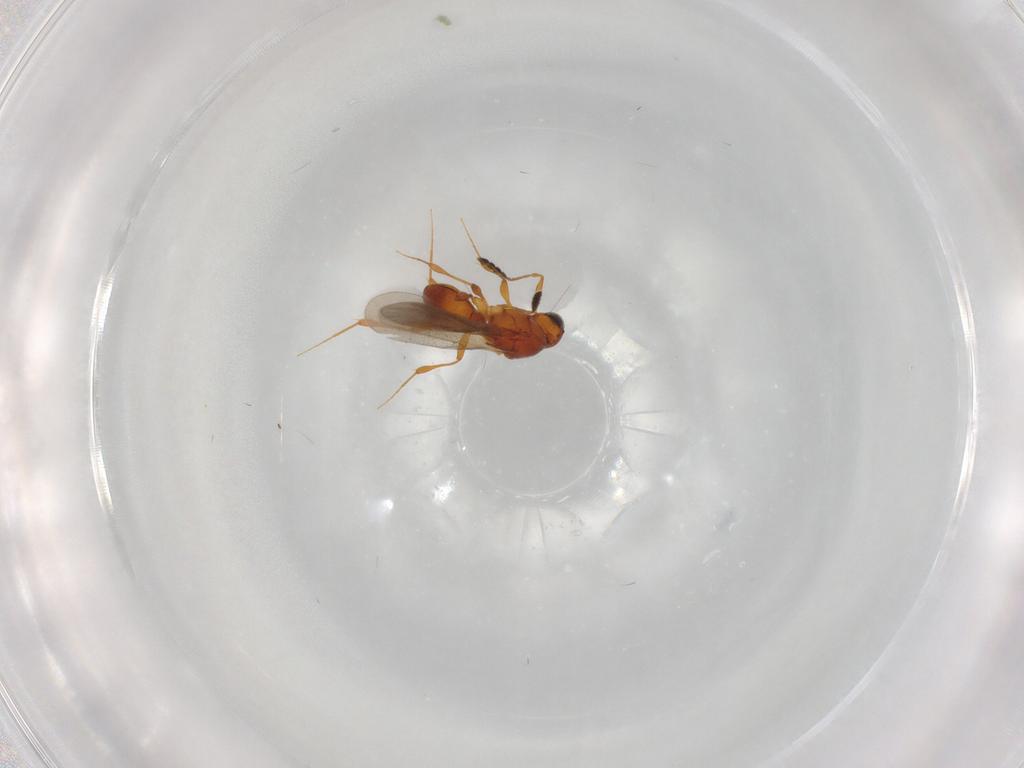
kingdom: Animalia
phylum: Arthropoda
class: Insecta
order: Hymenoptera
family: Platygastridae
